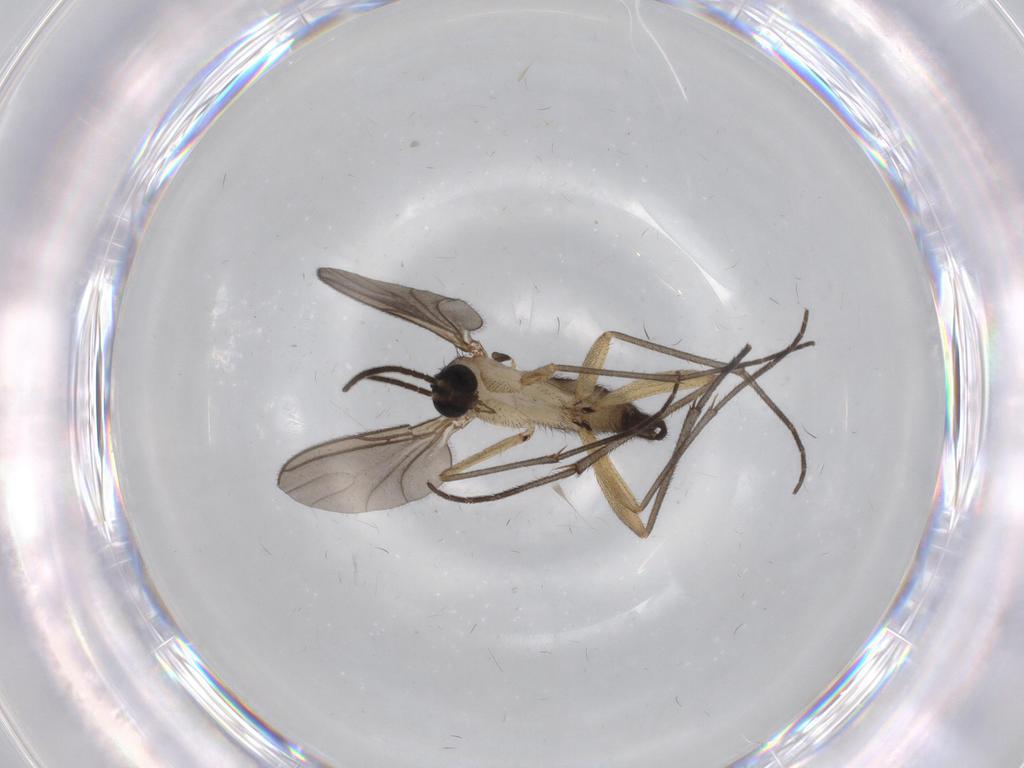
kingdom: Animalia
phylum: Arthropoda
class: Insecta
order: Diptera
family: Sciaridae
